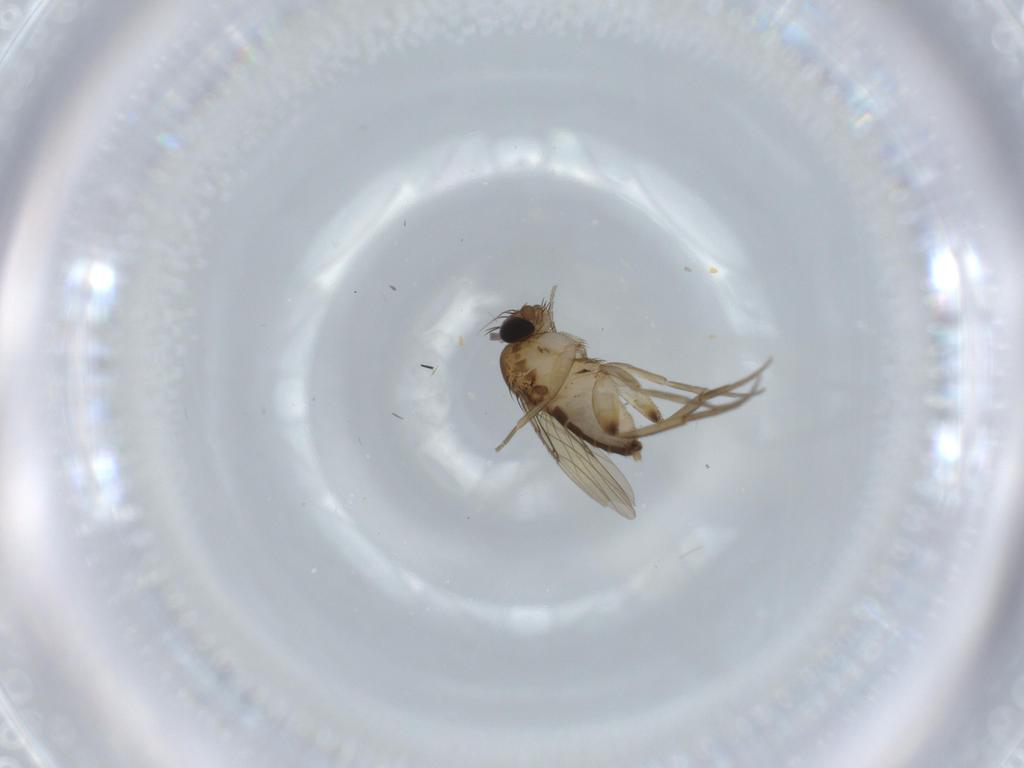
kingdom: Animalia
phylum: Arthropoda
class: Insecta
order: Diptera
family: Phoridae
